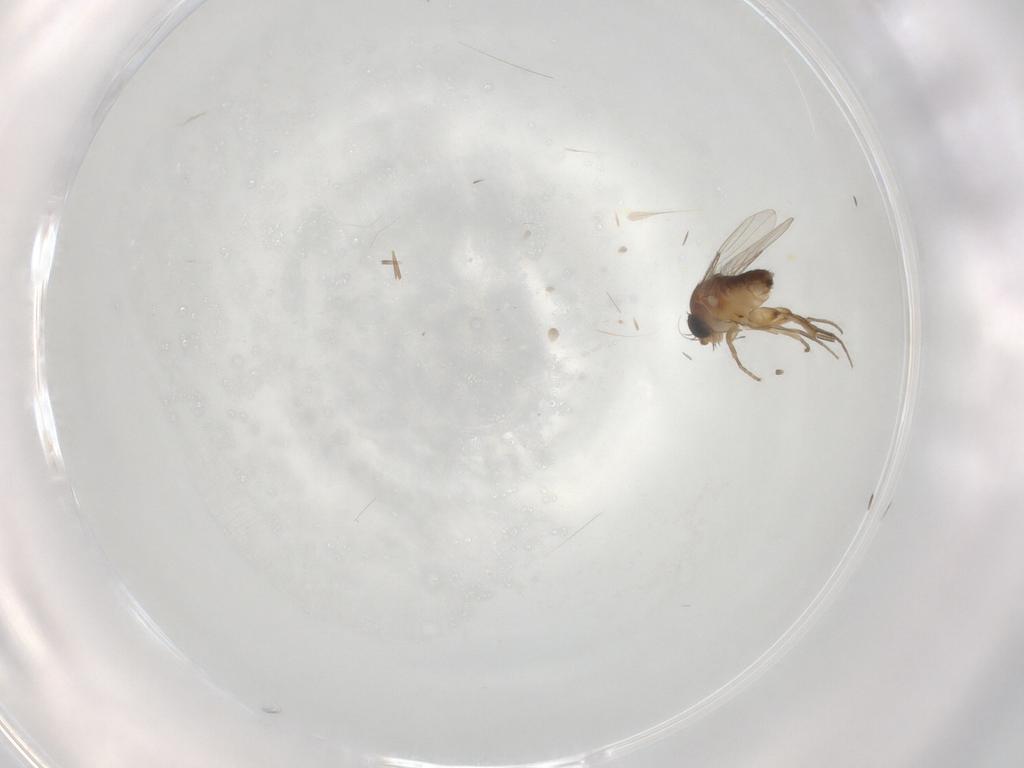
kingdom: Animalia
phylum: Arthropoda
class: Insecta
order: Diptera
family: Phoridae
